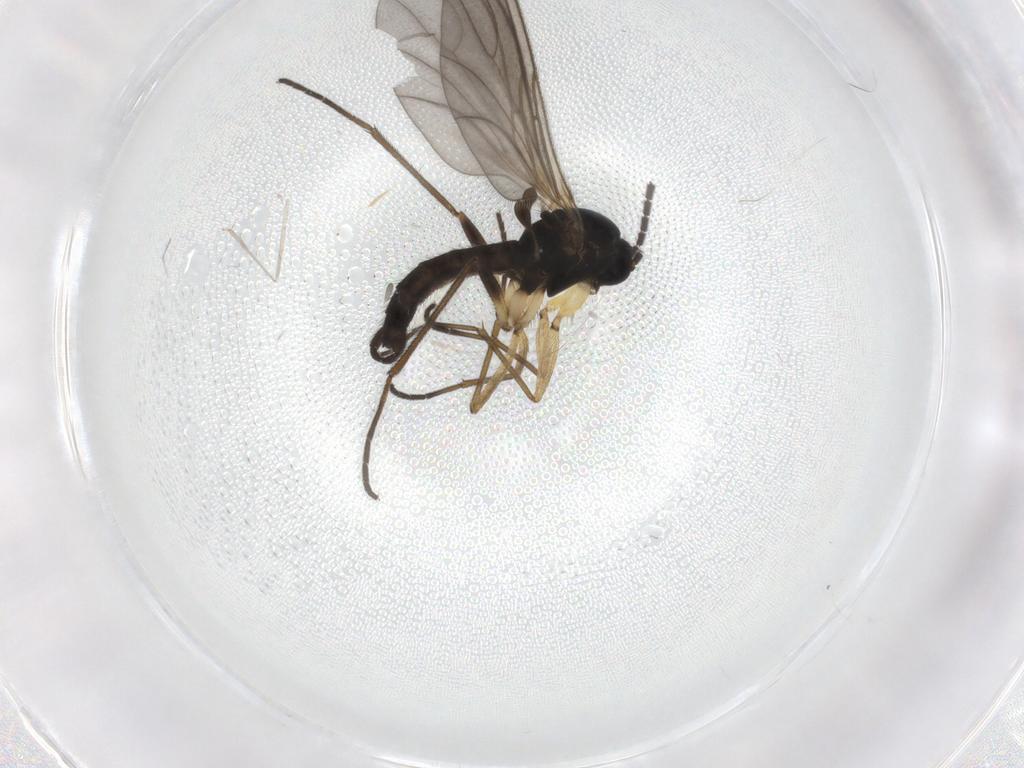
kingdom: Animalia
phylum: Arthropoda
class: Insecta
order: Diptera
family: Sciaridae
